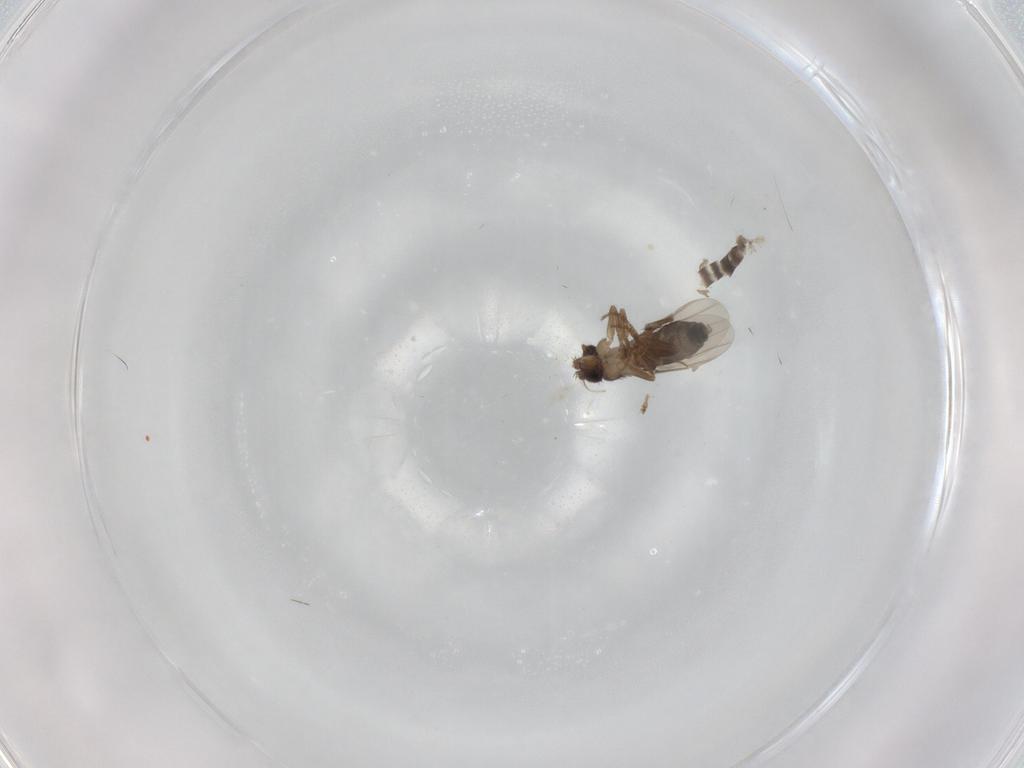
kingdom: Animalia
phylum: Arthropoda
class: Insecta
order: Diptera
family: Phoridae
